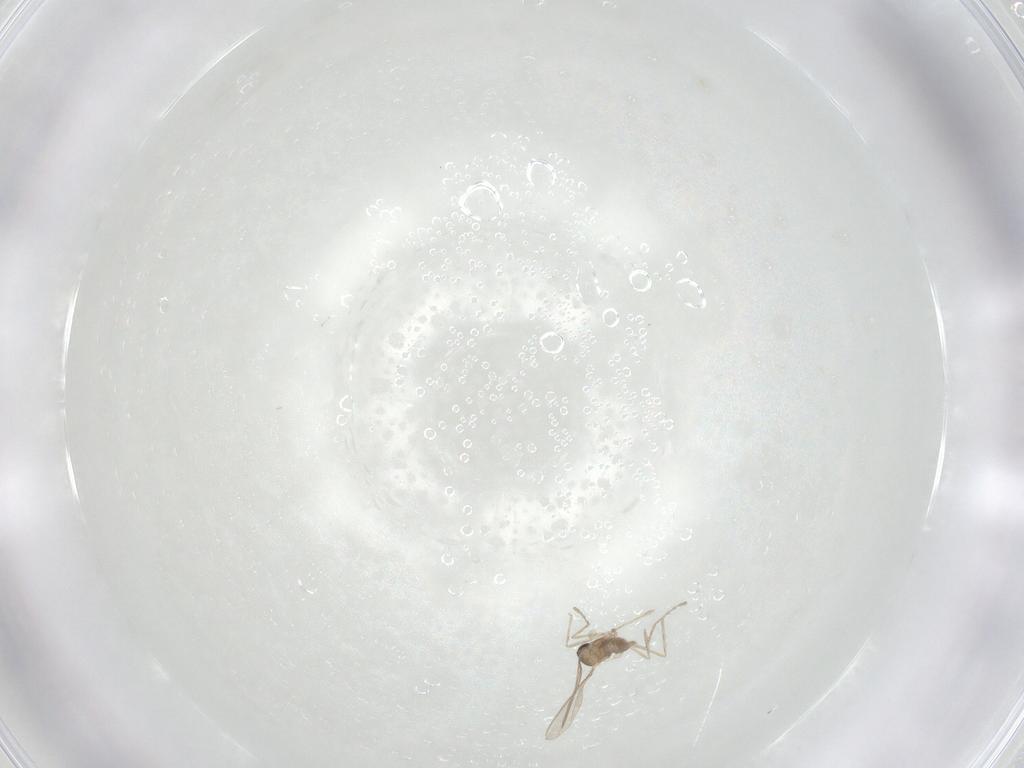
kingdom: Animalia
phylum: Arthropoda
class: Insecta
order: Diptera
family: Cecidomyiidae
